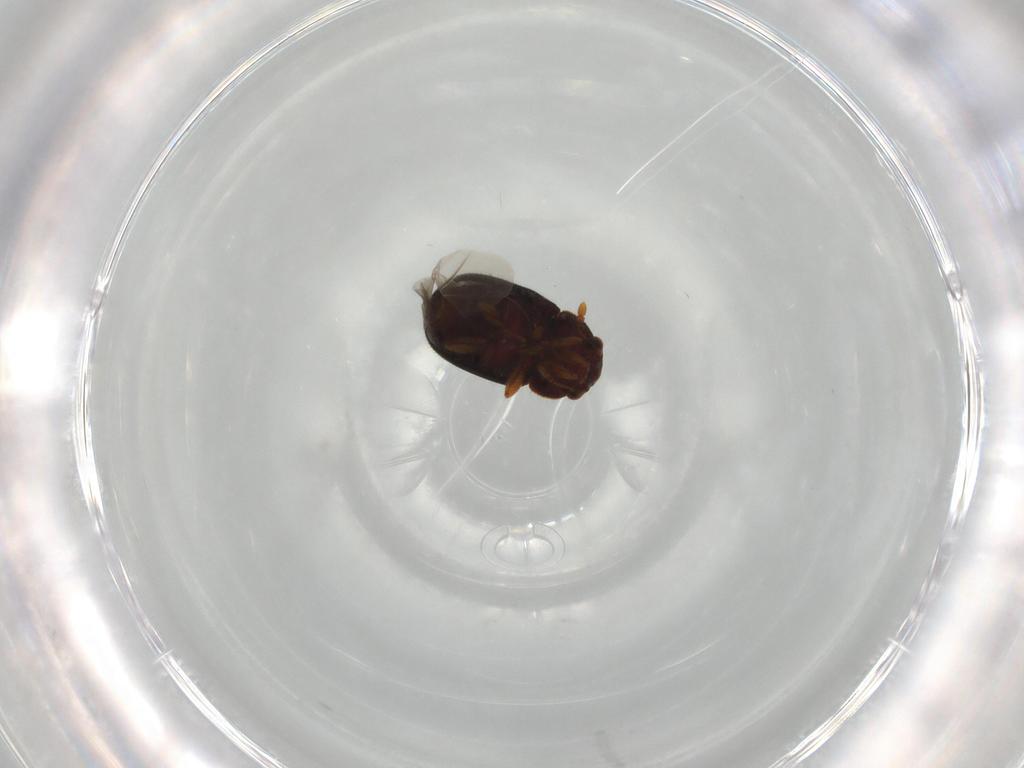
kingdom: Animalia
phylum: Arthropoda
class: Insecta
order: Coleoptera
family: Sphindidae
